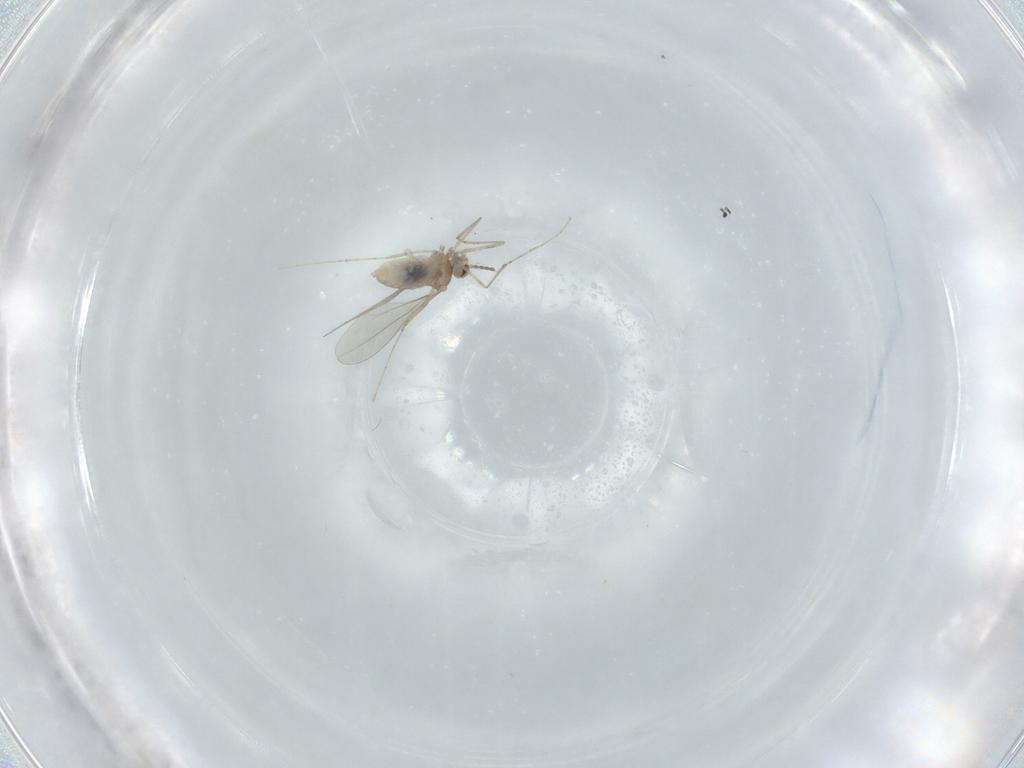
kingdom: Animalia
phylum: Arthropoda
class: Insecta
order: Diptera
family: Cecidomyiidae
